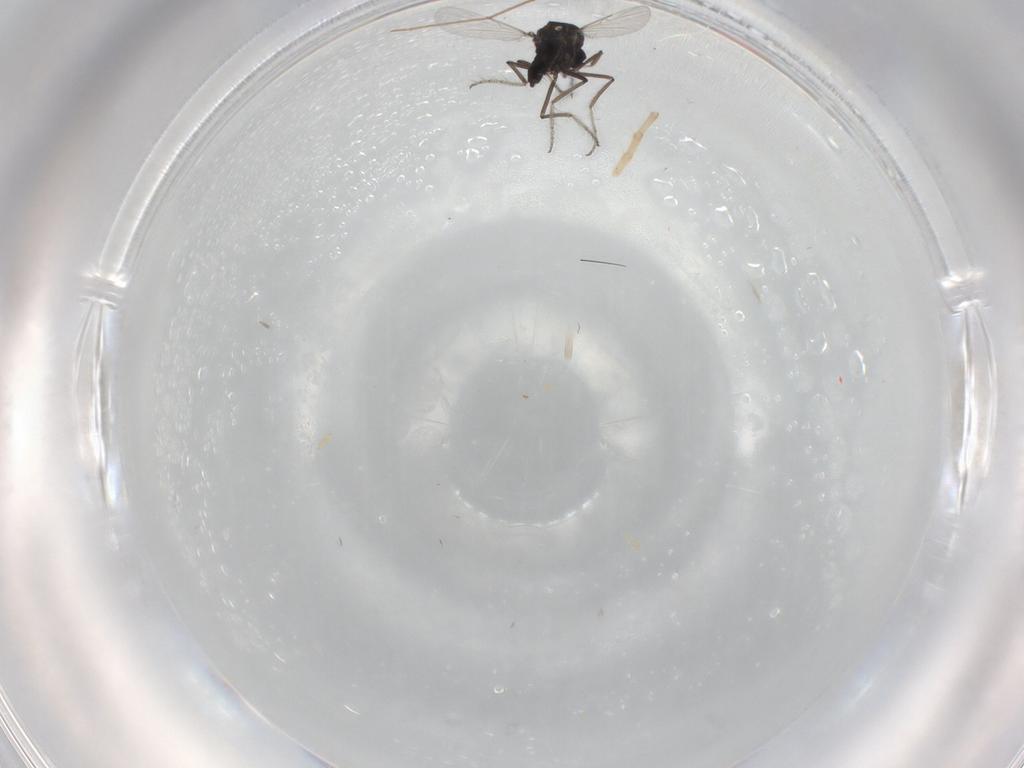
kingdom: Animalia
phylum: Arthropoda
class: Insecta
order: Diptera
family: Ceratopogonidae
